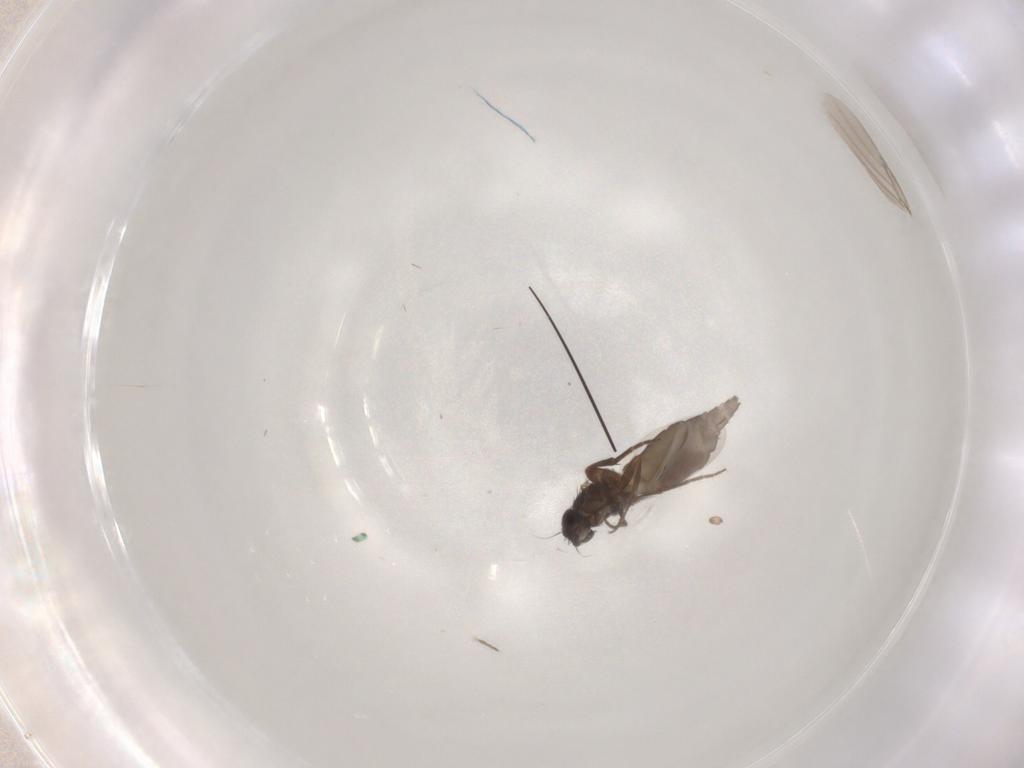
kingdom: Animalia
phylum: Arthropoda
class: Insecta
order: Diptera
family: Phoridae
